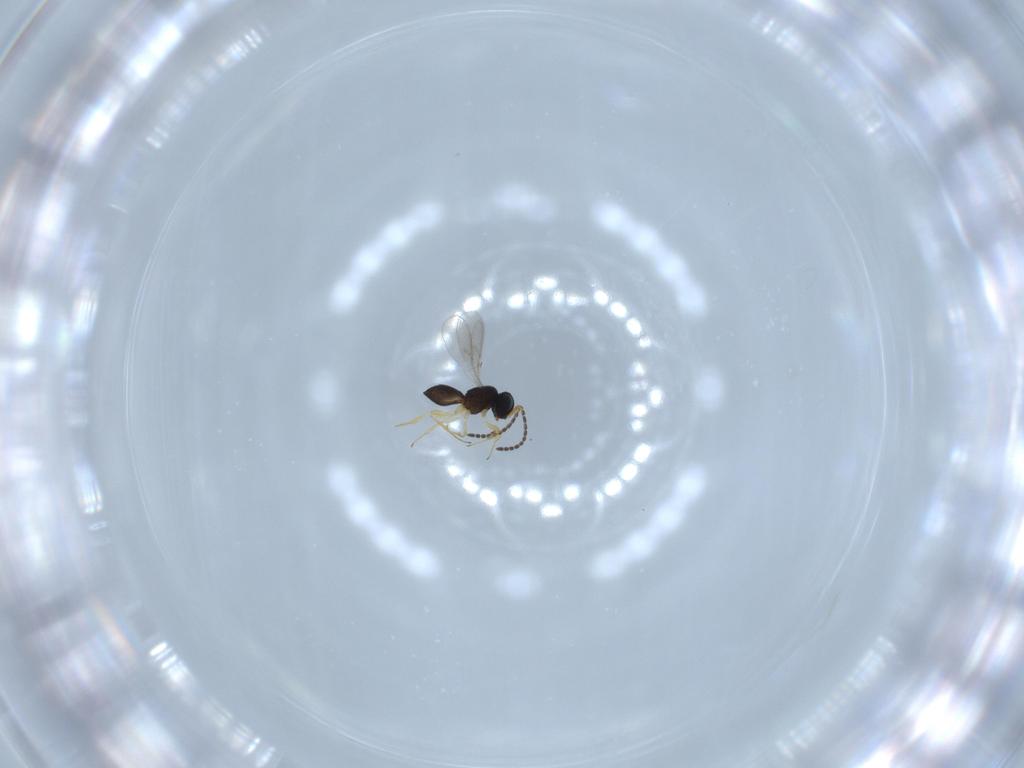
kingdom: Animalia
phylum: Arthropoda
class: Insecta
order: Hymenoptera
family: Scelionidae
